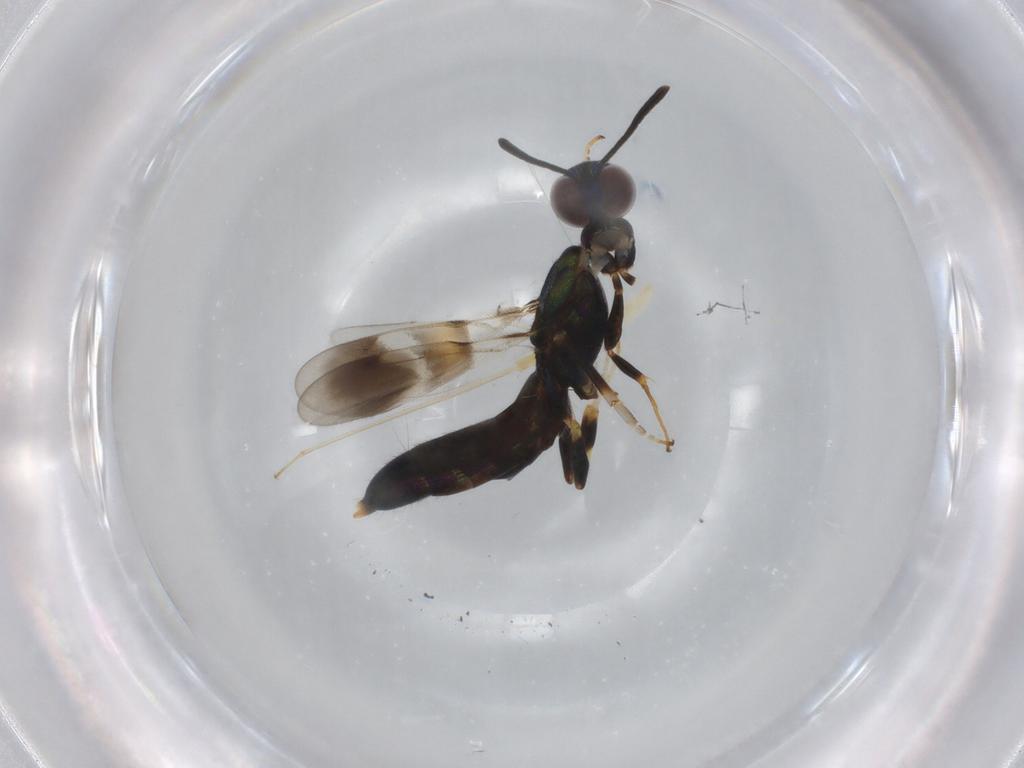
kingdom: Animalia
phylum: Arthropoda
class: Insecta
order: Hymenoptera
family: Eupelmidae
